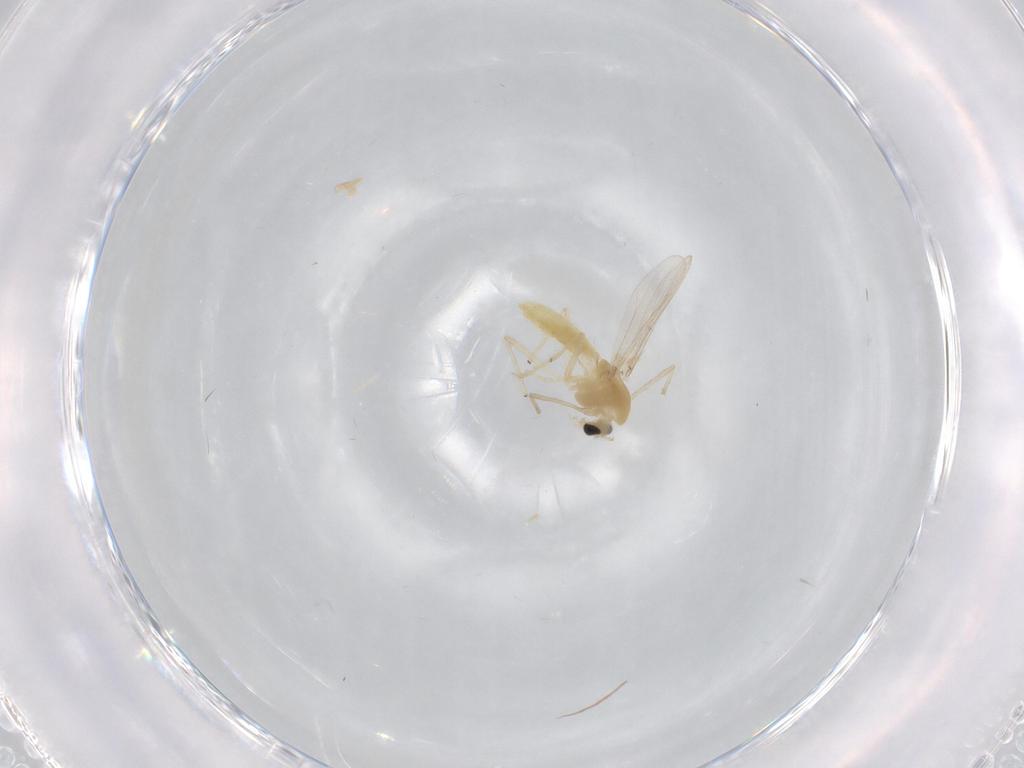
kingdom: Animalia
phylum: Arthropoda
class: Insecta
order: Diptera
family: Chironomidae
